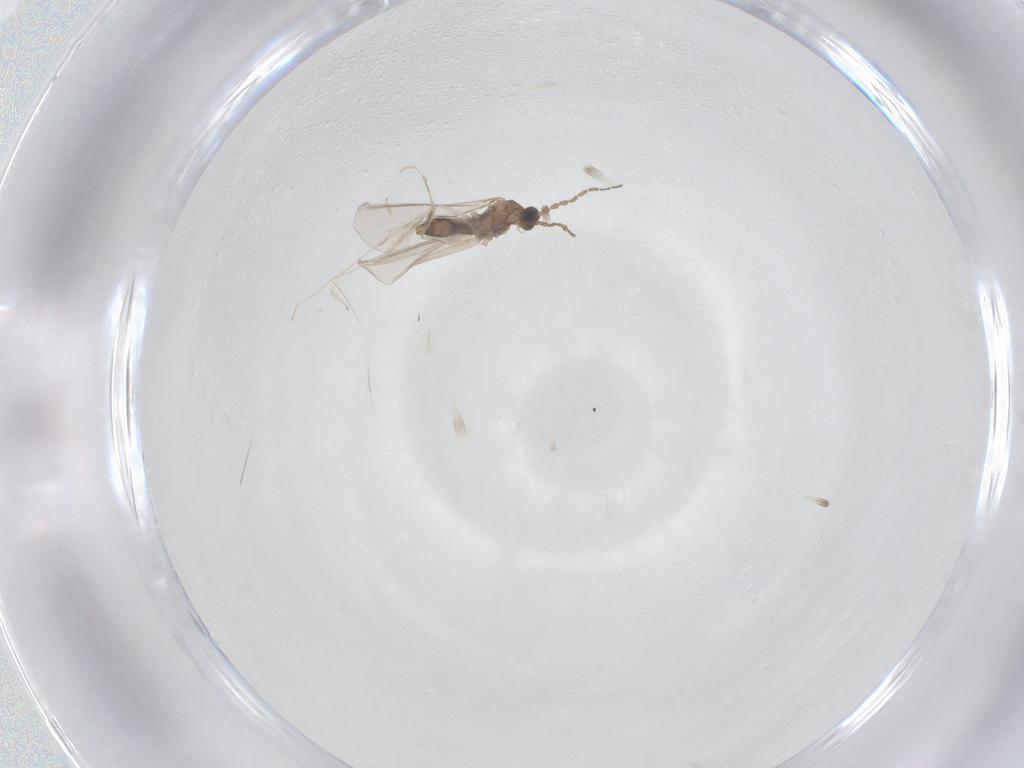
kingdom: Animalia
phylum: Arthropoda
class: Insecta
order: Diptera
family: Cecidomyiidae
